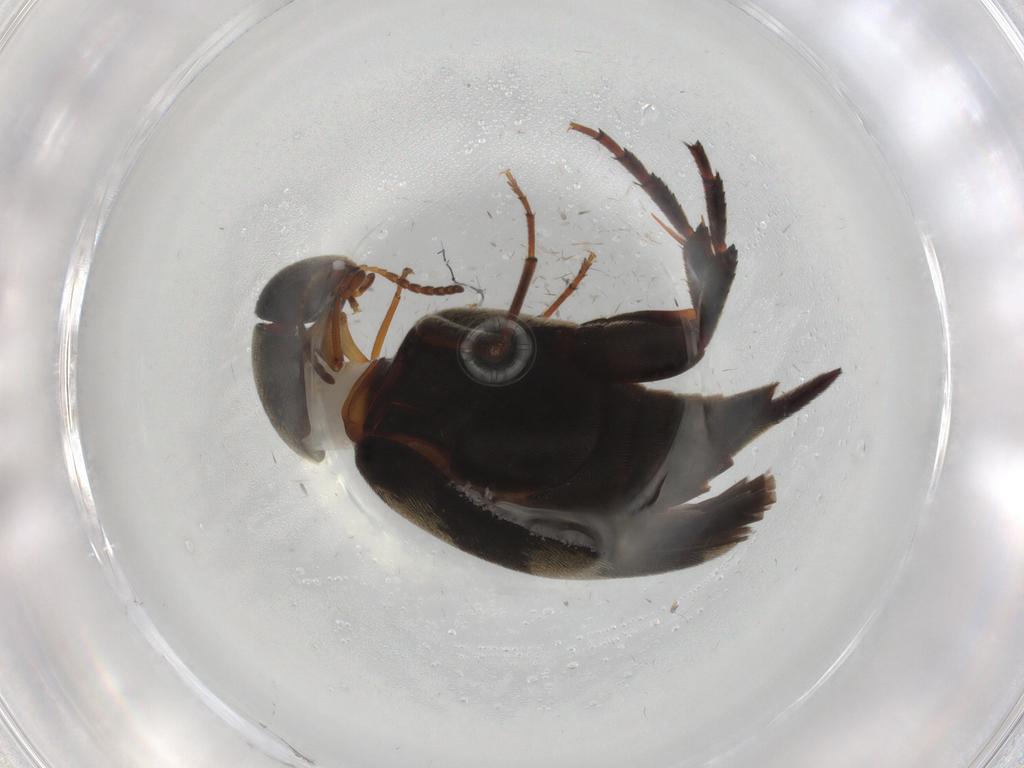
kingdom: Animalia
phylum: Arthropoda
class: Insecta
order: Coleoptera
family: Mordellidae
